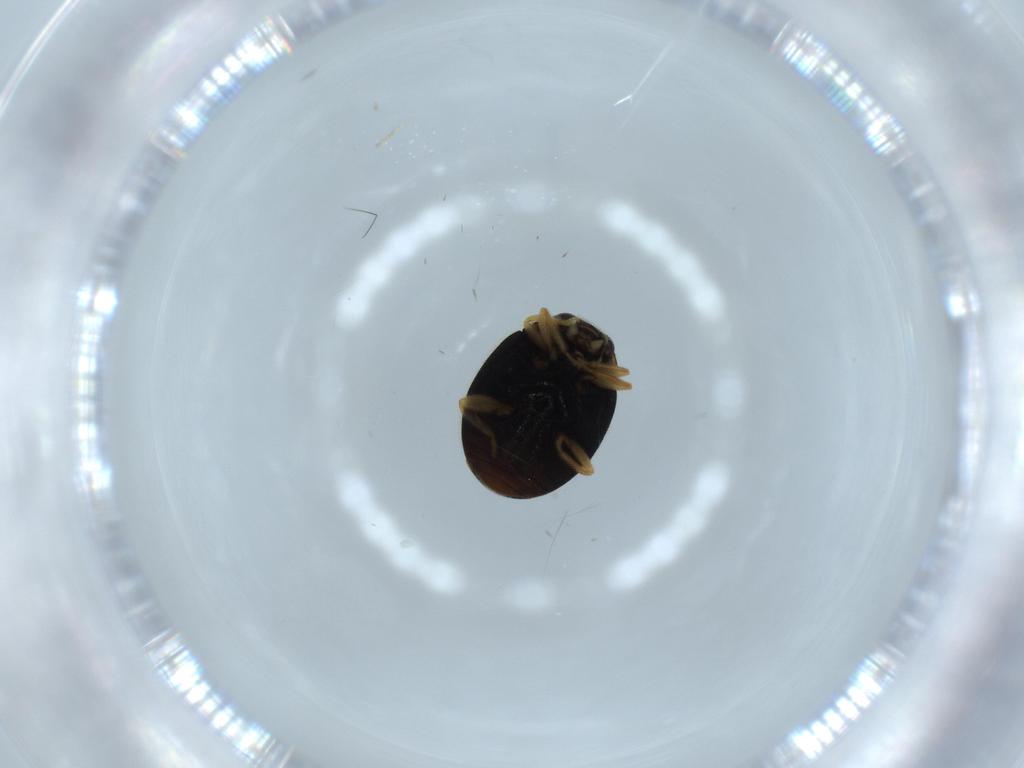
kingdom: Animalia
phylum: Arthropoda
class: Insecta
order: Coleoptera
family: Coccinellidae
